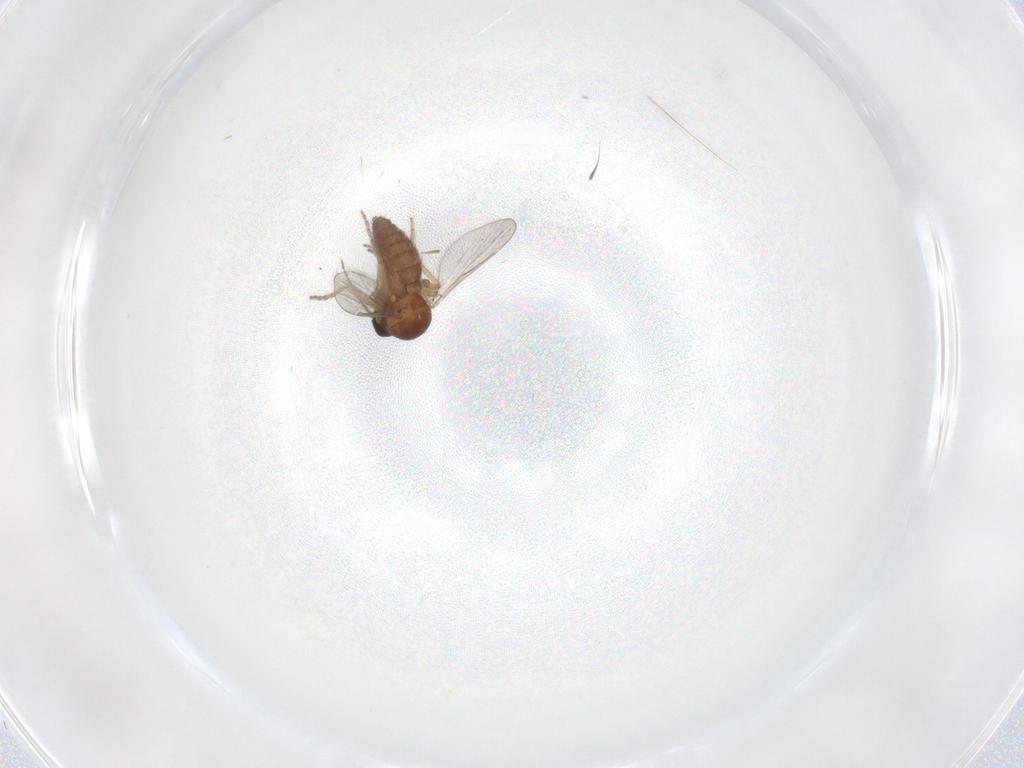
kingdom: Animalia
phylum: Arthropoda
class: Insecta
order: Diptera
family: Ceratopogonidae
